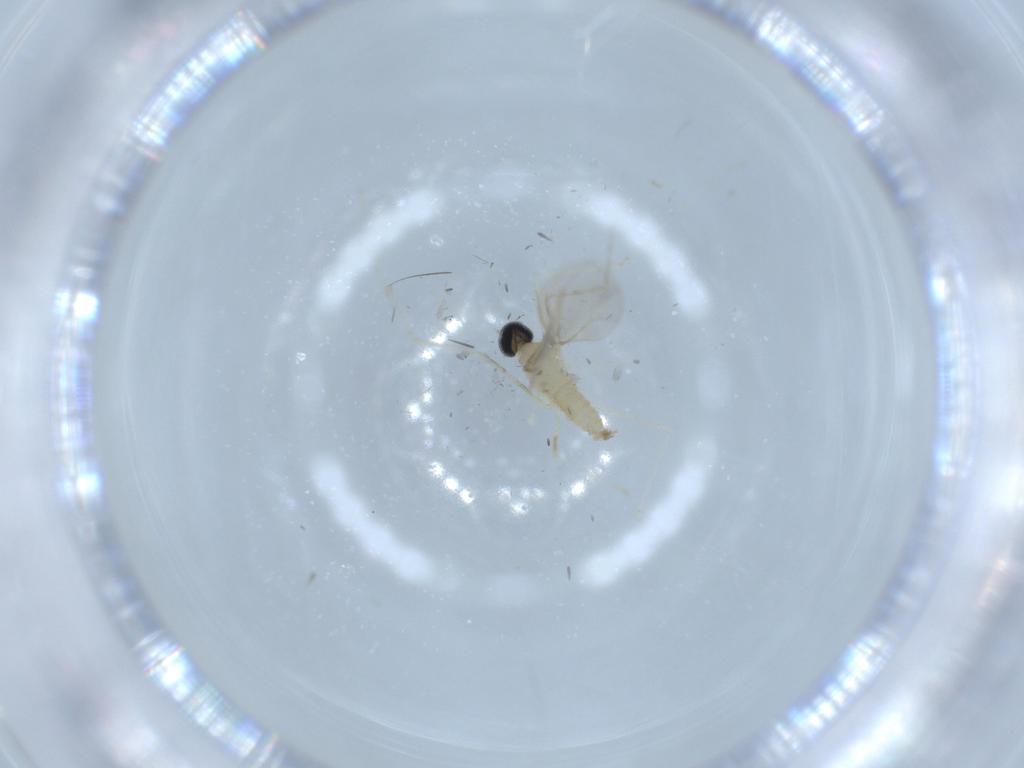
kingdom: Animalia
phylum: Arthropoda
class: Insecta
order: Diptera
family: Cecidomyiidae
